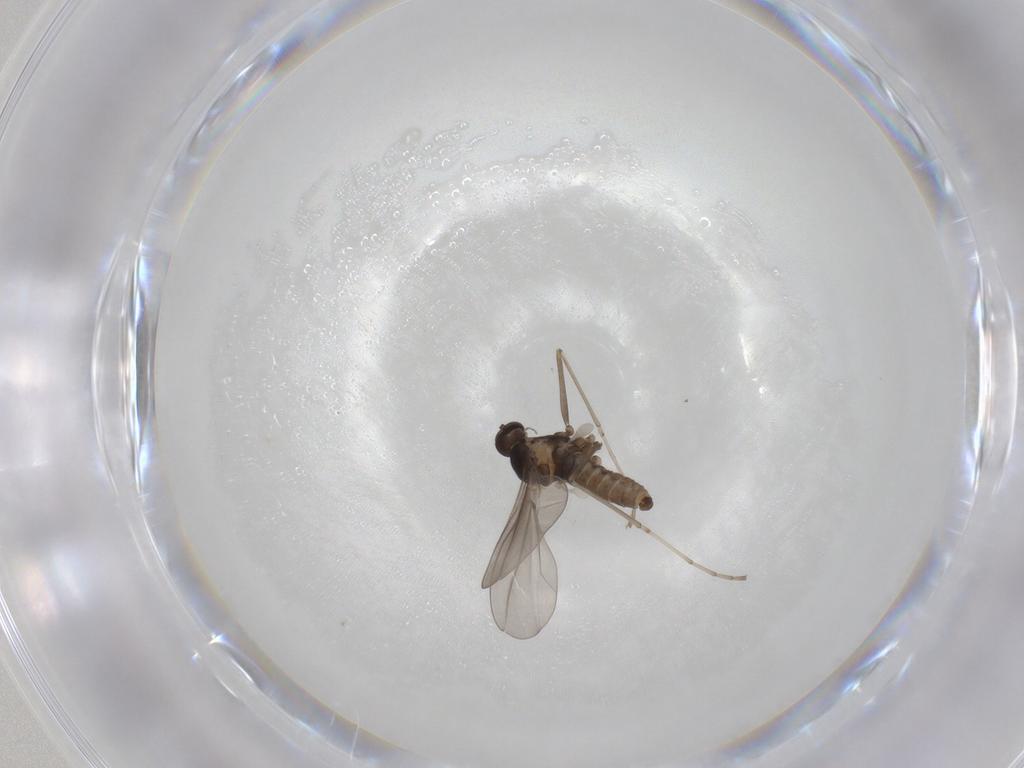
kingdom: Animalia
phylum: Arthropoda
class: Insecta
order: Diptera
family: Cecidomyiidae
